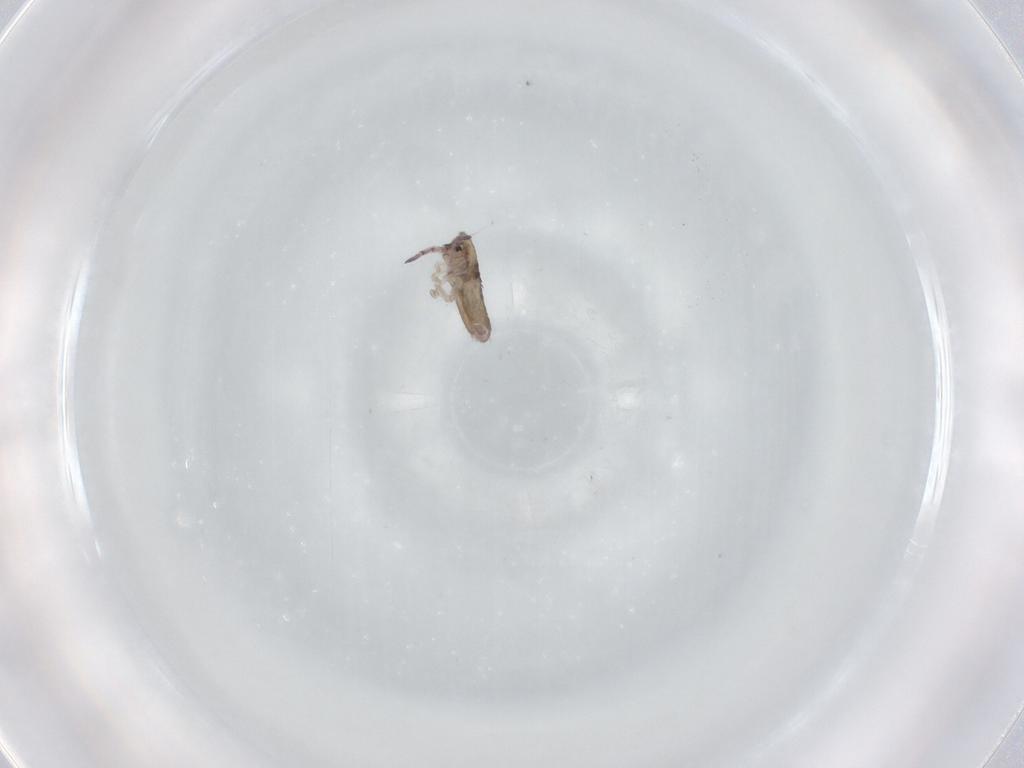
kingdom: Animalia
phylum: Arthropoda
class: Collembola
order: Entomobryomorpha
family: Entomobryidae
